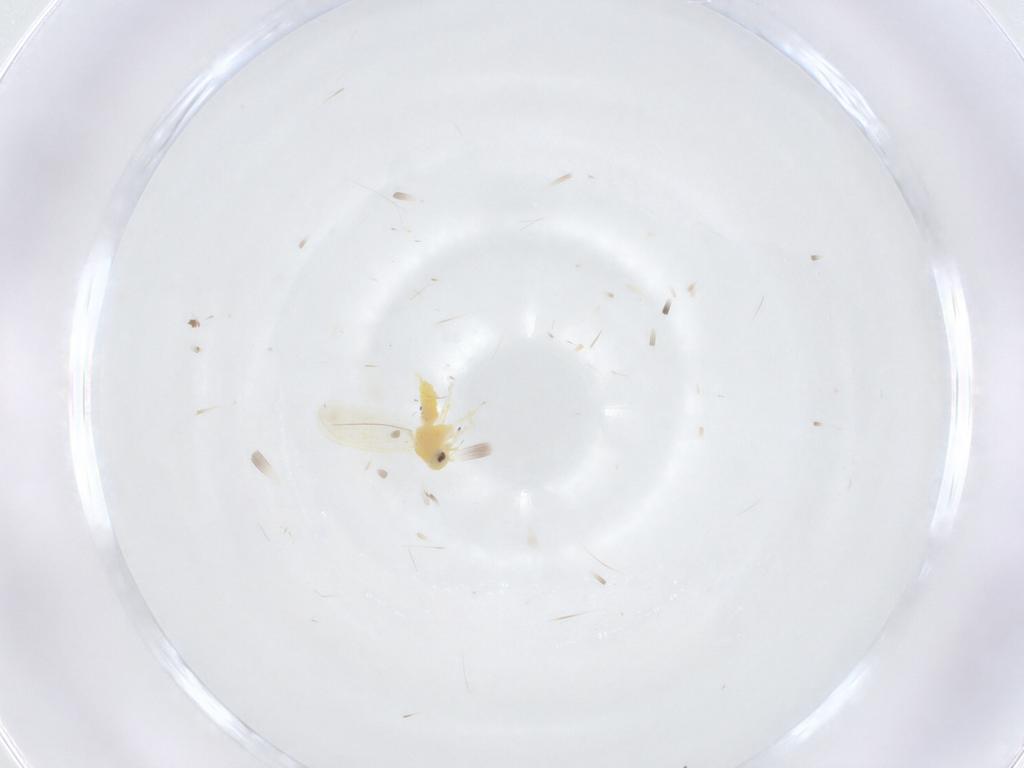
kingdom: Animalia
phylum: Arthropoda
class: Insecta
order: Hemiptera
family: Aleyrodidae
